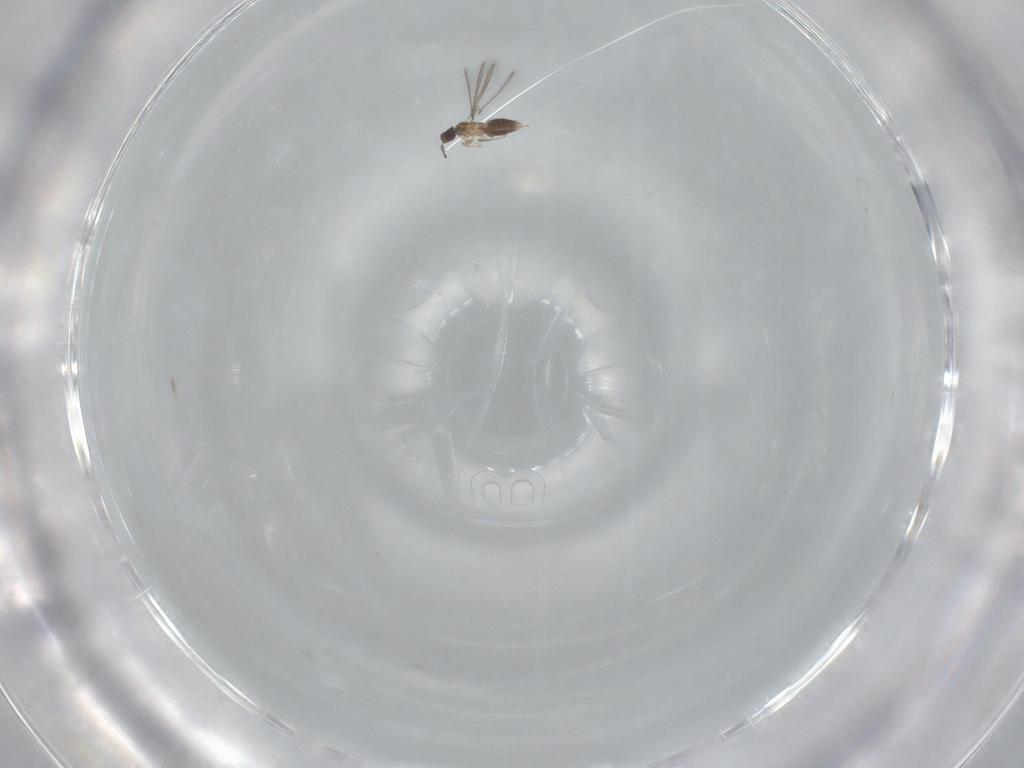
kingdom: Animalia
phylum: Arthropoda
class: Insecta
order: Hymenoptera
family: Mymaridae
